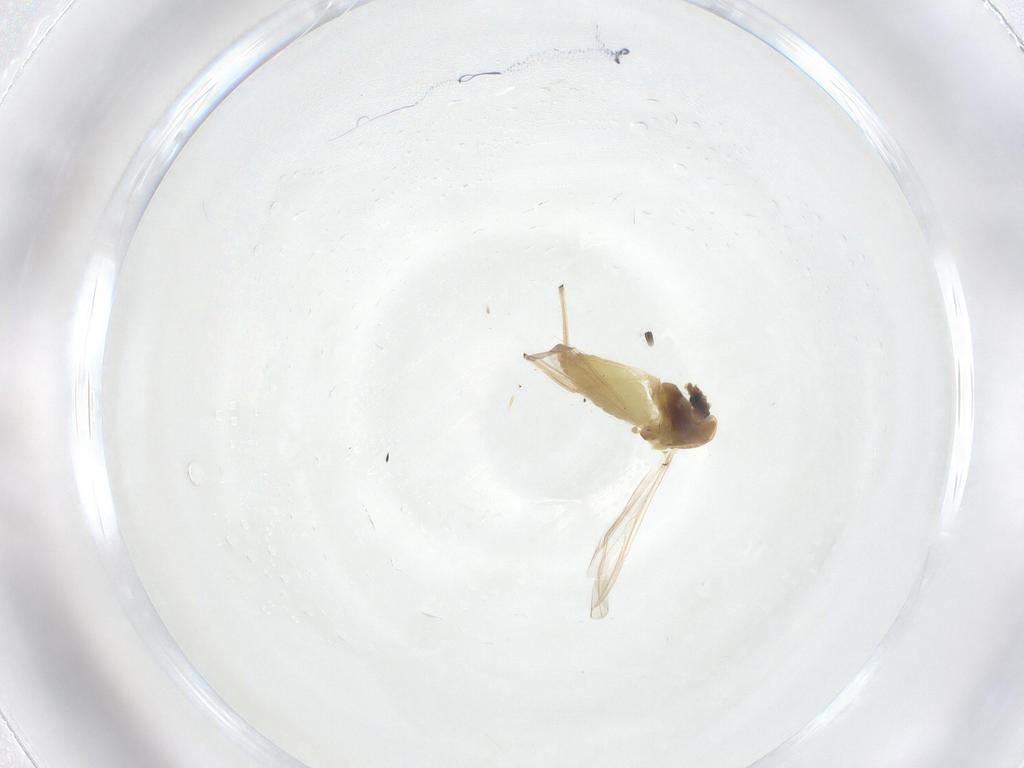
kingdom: Animalia
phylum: Arthropoda
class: Insecta
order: Diptera
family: Chironomidae
